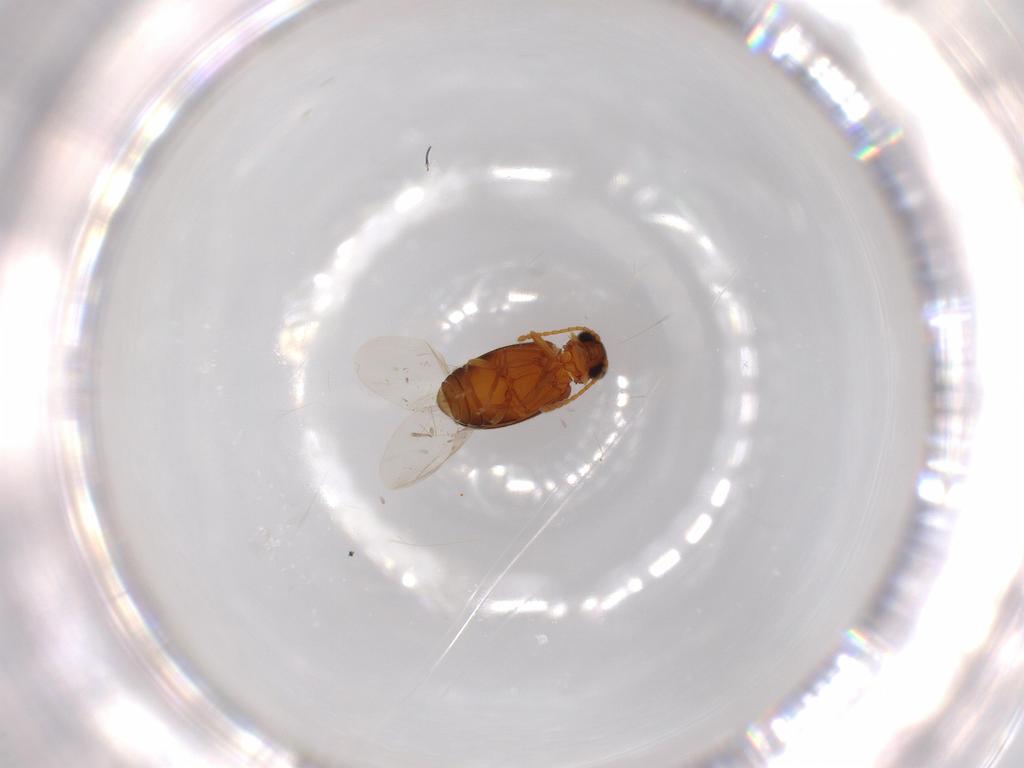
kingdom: Animalia
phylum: Arthropoda
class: Insecta
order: Coleoptera
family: Aderidae
